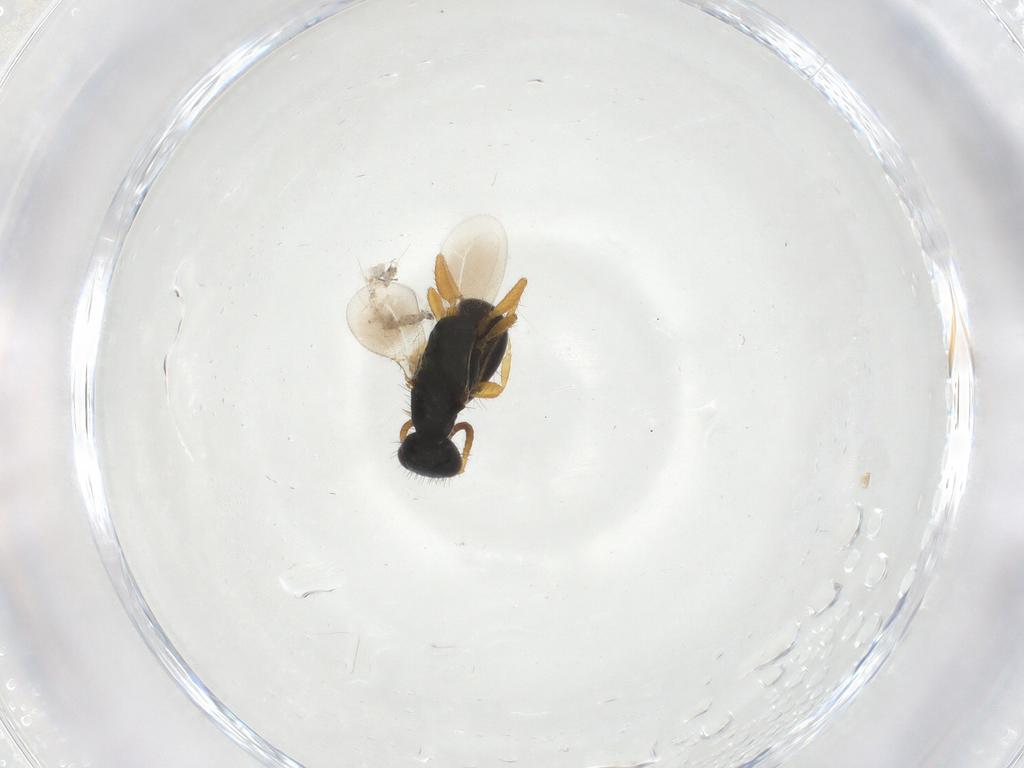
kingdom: Animalia
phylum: Arthropoda
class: Insecta
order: Hymenoptera
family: Bethylidae
